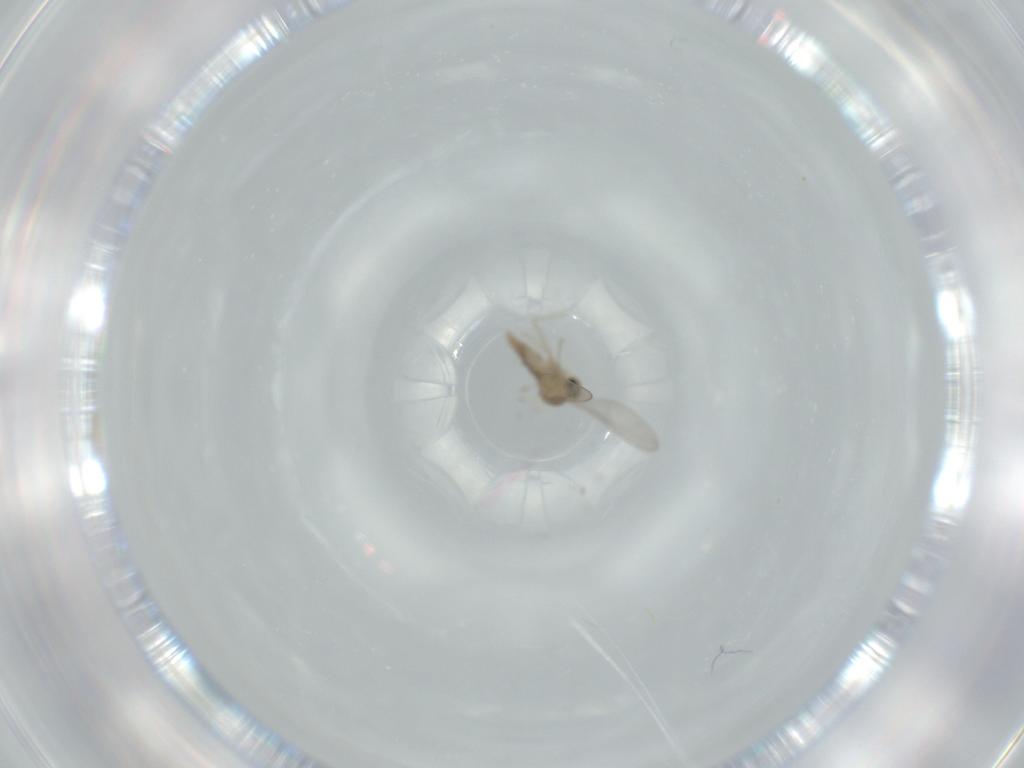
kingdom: Animalia
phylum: Arthropoda
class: Insecta
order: Diptera
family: Cecidomyiidae
